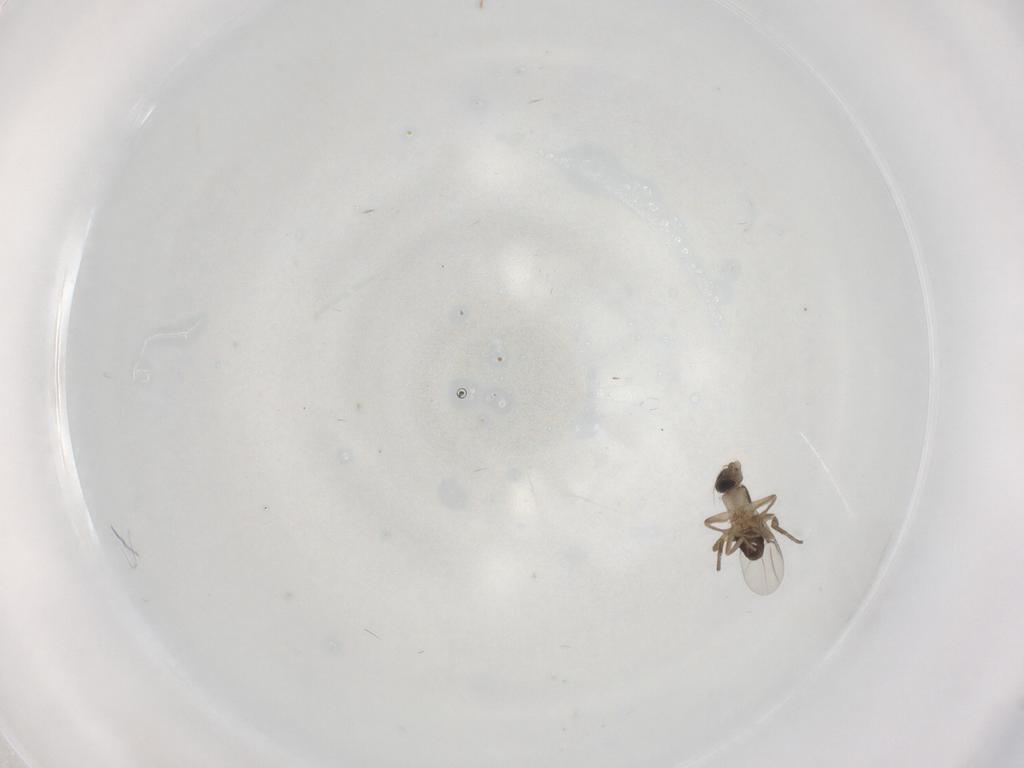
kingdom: Animalia
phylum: Arthropoda
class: Insecta
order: Diptera
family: Phoridae
